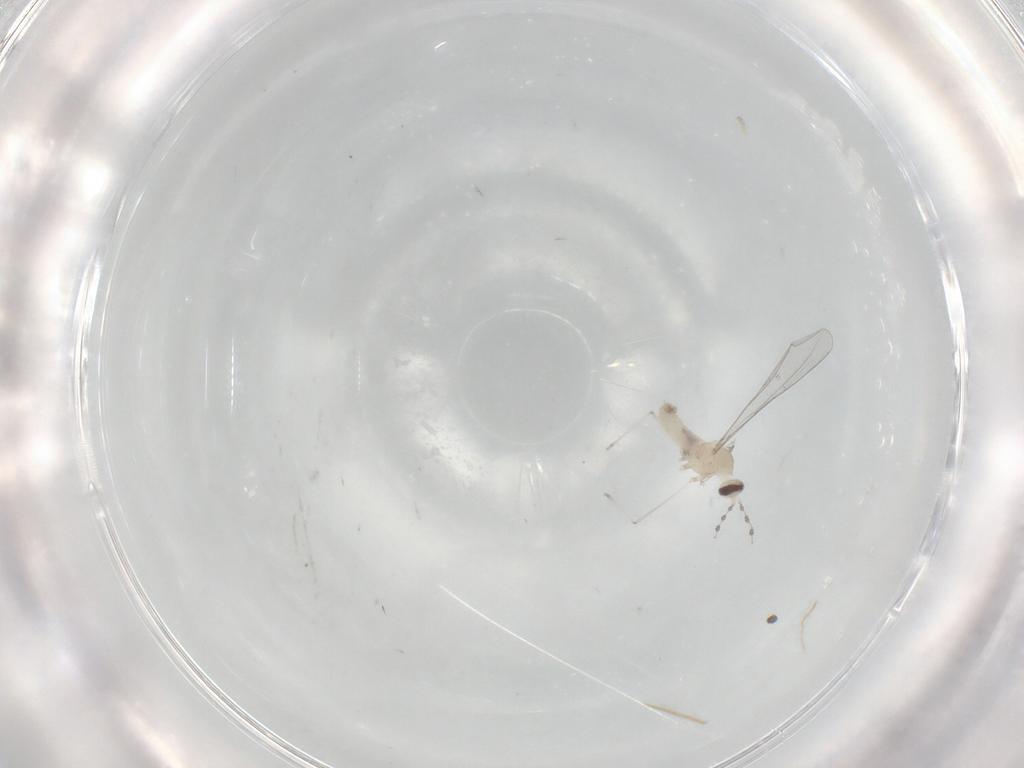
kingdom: Animalia
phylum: Arthropoda
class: Insecta
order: Diptera
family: Cecidomyiidae
